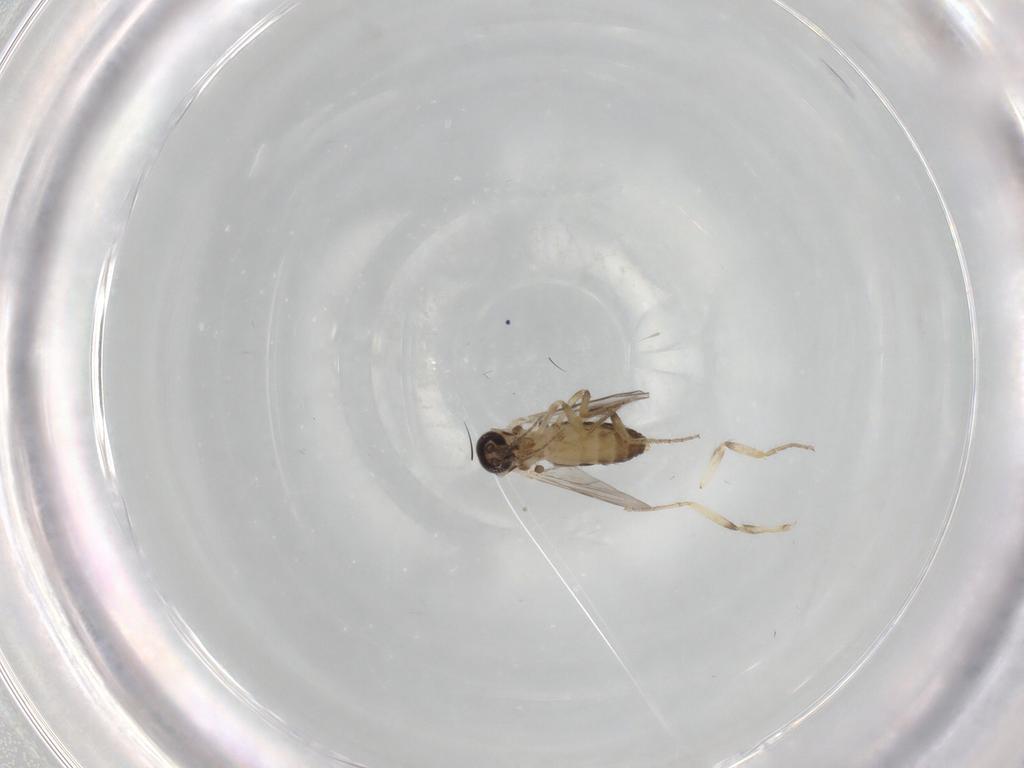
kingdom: Animalia
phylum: Arthropoda
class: Insecta
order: Diptera
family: Ceratopogonidae
